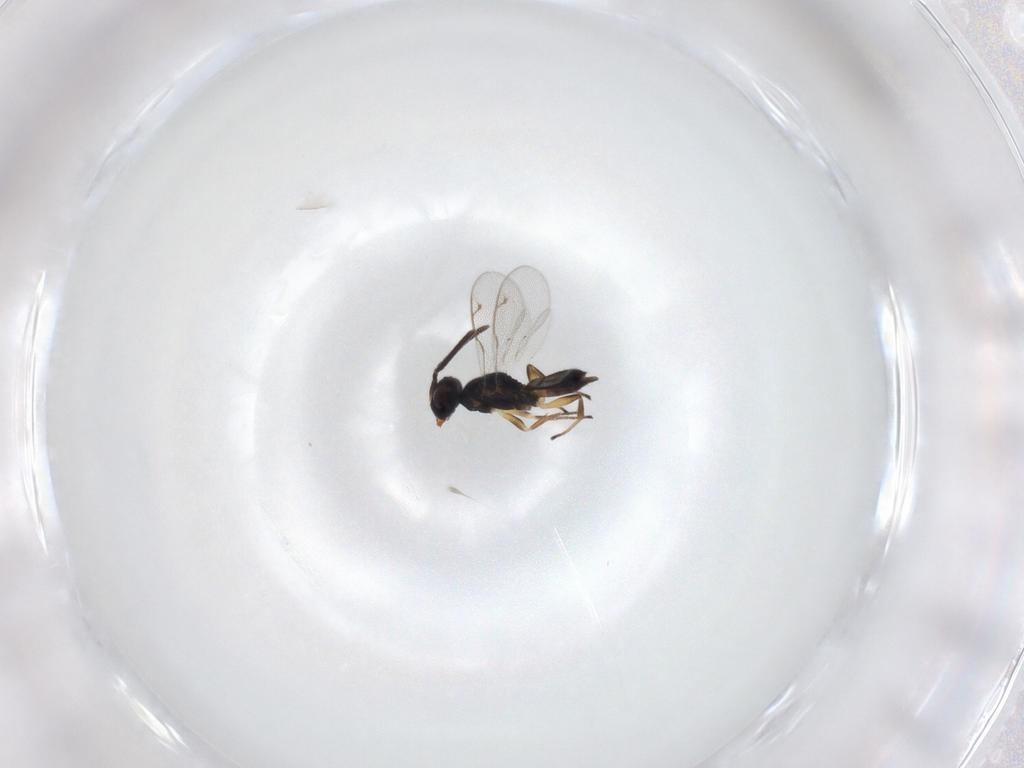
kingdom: Animalia
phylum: Arthropoda
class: Insecta
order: Hymenoptera
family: Eupelmidae
